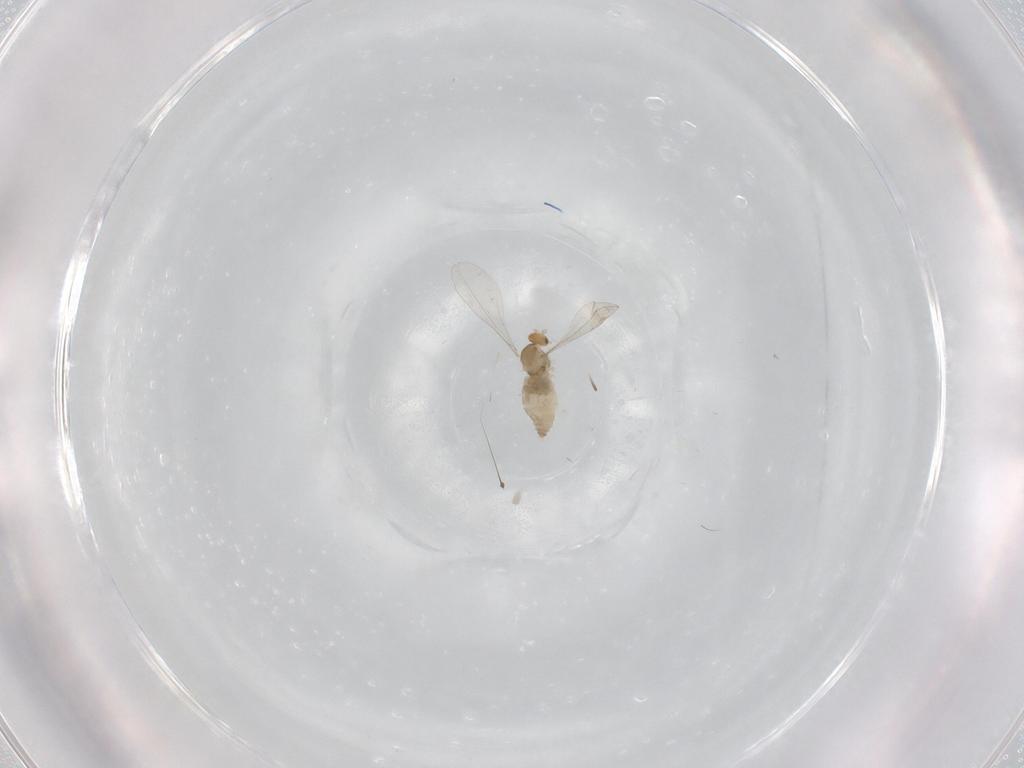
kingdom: Animalia
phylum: Arthropoda
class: Insecta
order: Diptera
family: Cecidomyiidae
